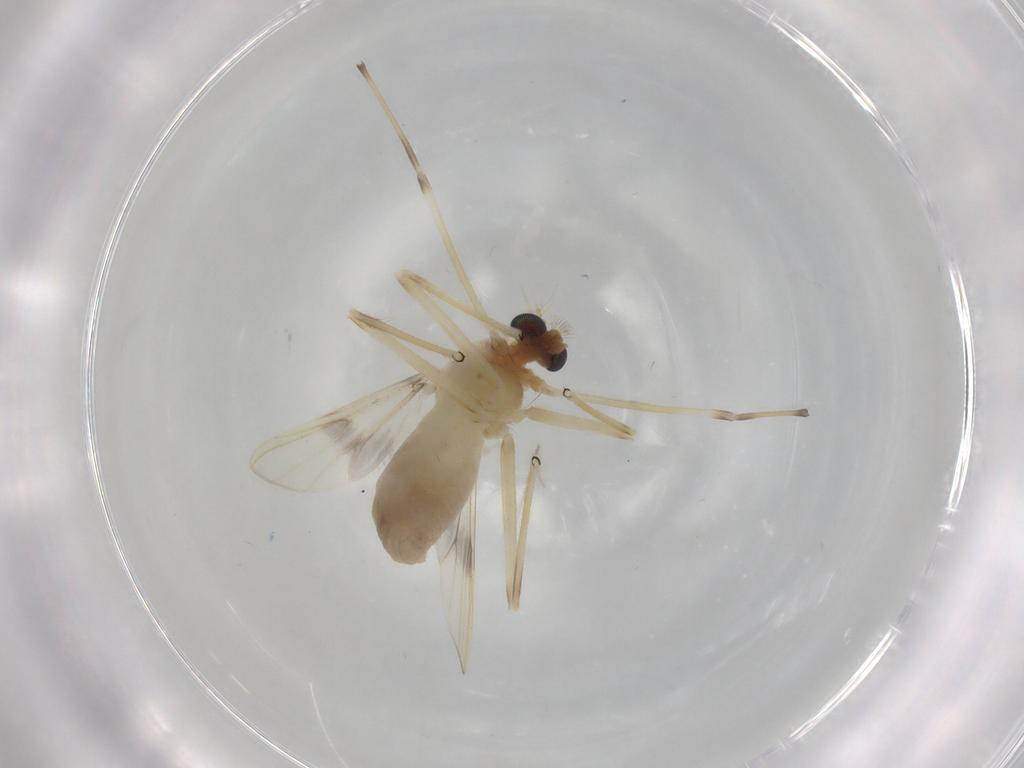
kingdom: Animalia
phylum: Arthropoda
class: Insecta
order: Diptera
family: Chironomidae
